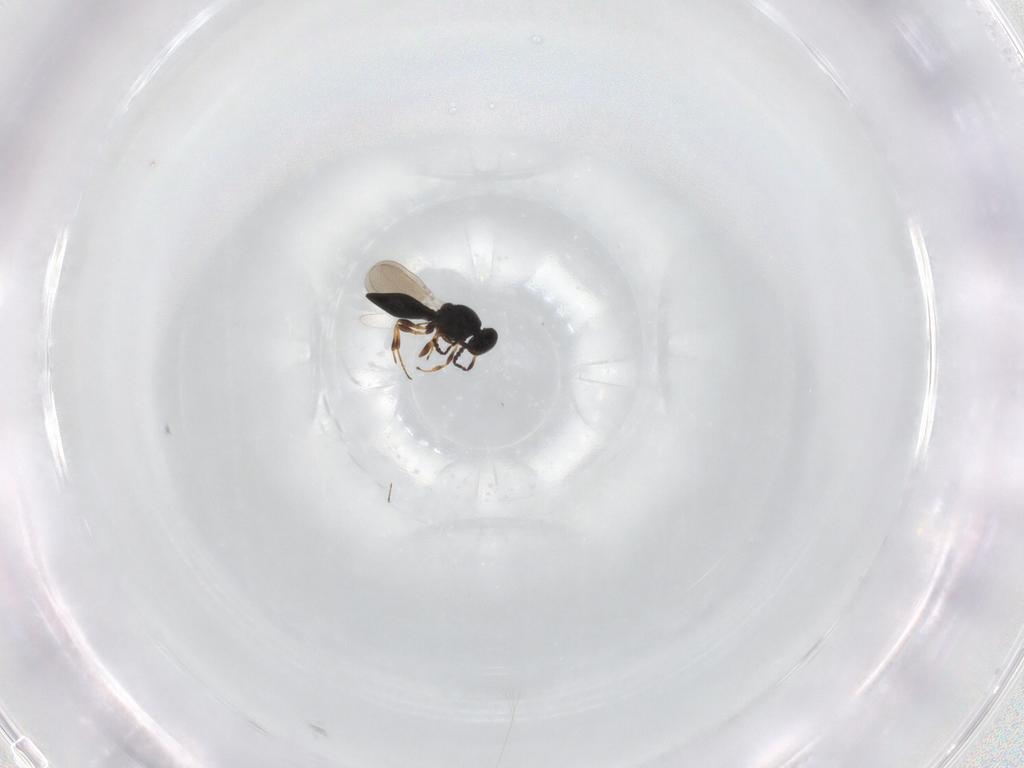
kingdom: Animalia
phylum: Arthropoda
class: Insecta
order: Hymenoptera
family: Platygastridae
